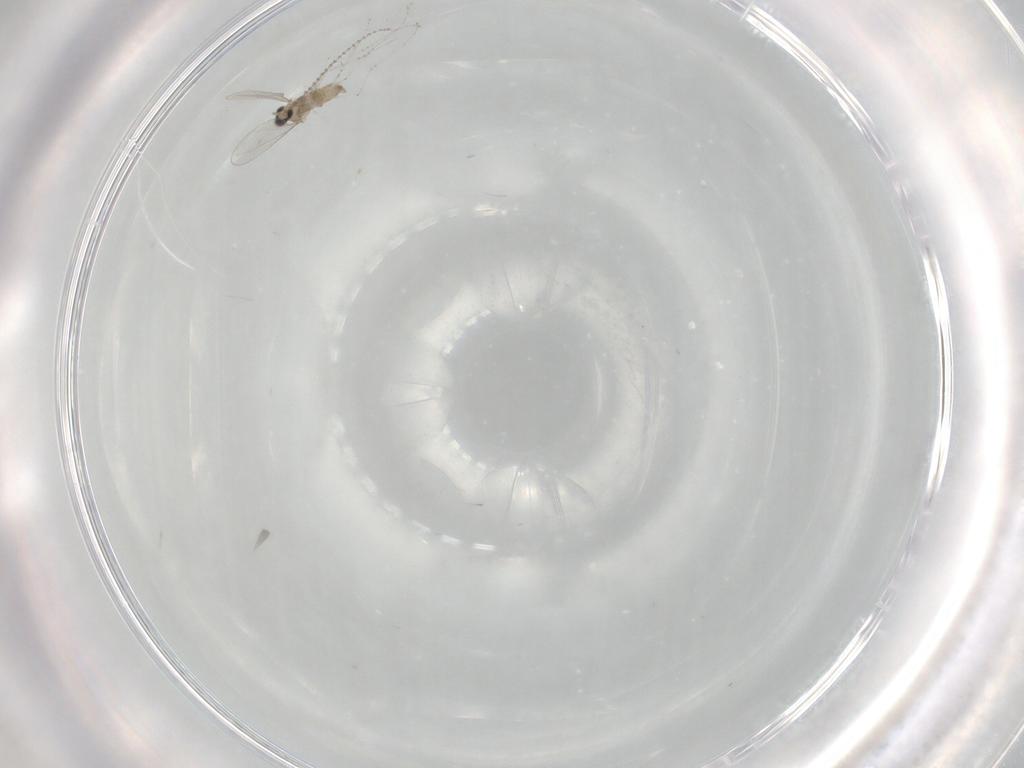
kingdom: Animalia
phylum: Arthropoda
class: Insecta
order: Diptera
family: Cecidomyiidae
